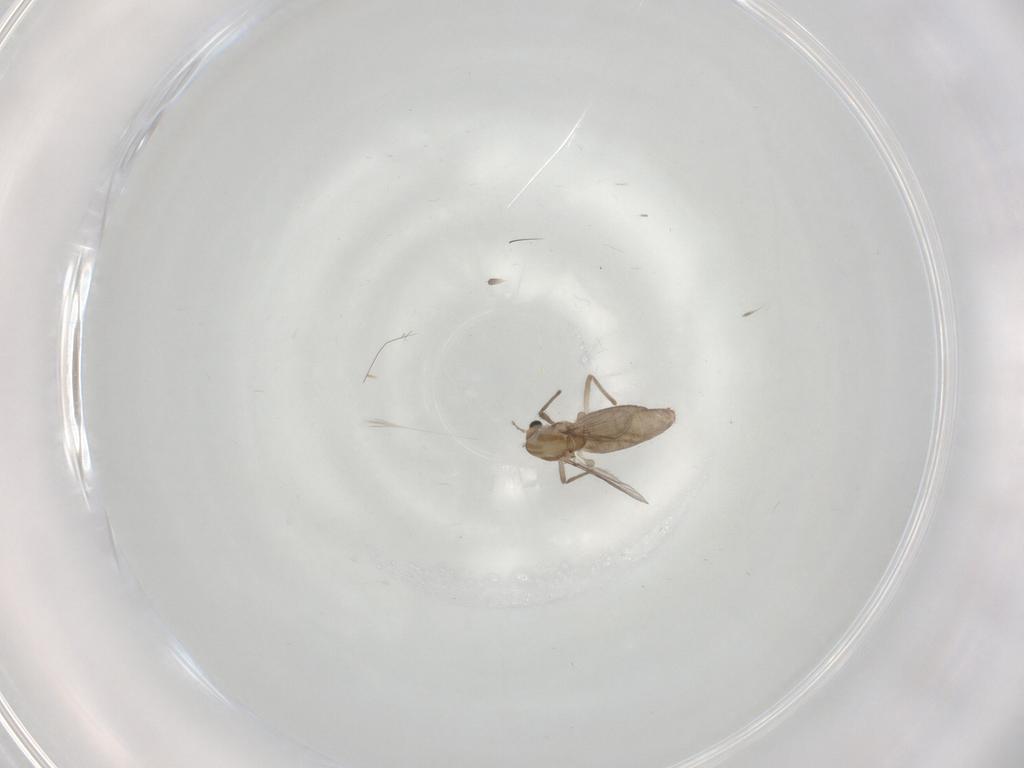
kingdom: Animalia
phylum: Arthropoda
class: Insecta
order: Diptera
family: Chironomidae
